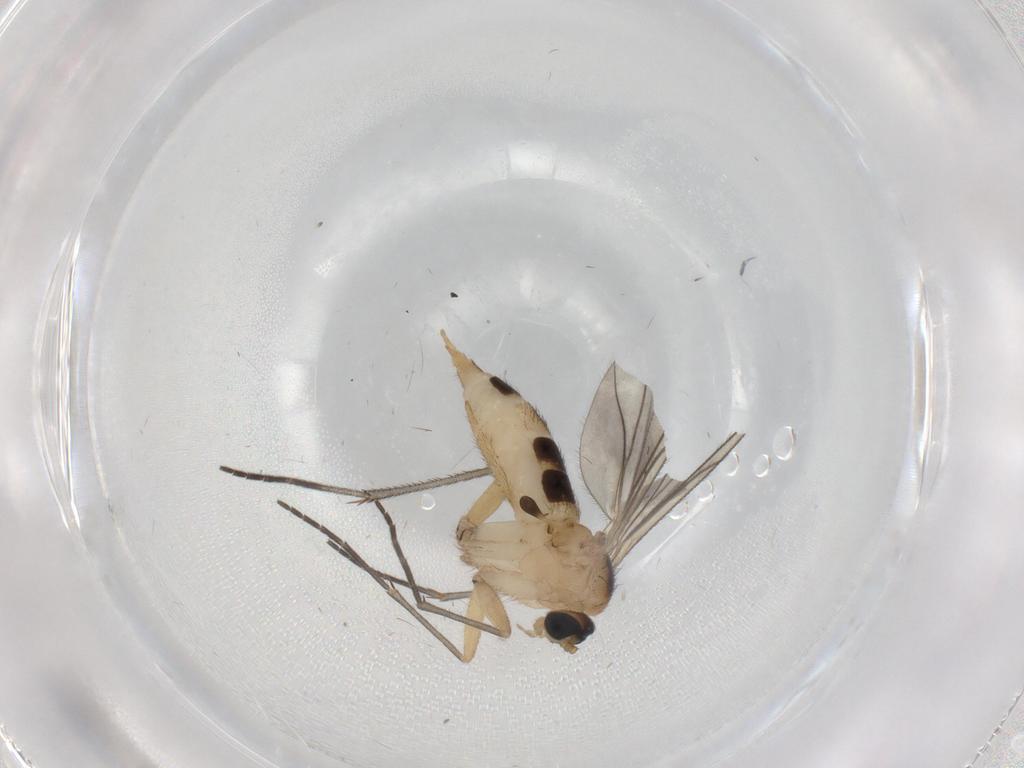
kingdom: Animalia
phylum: Arthropoda
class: Insecta
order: Diptera
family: Sciaridae
